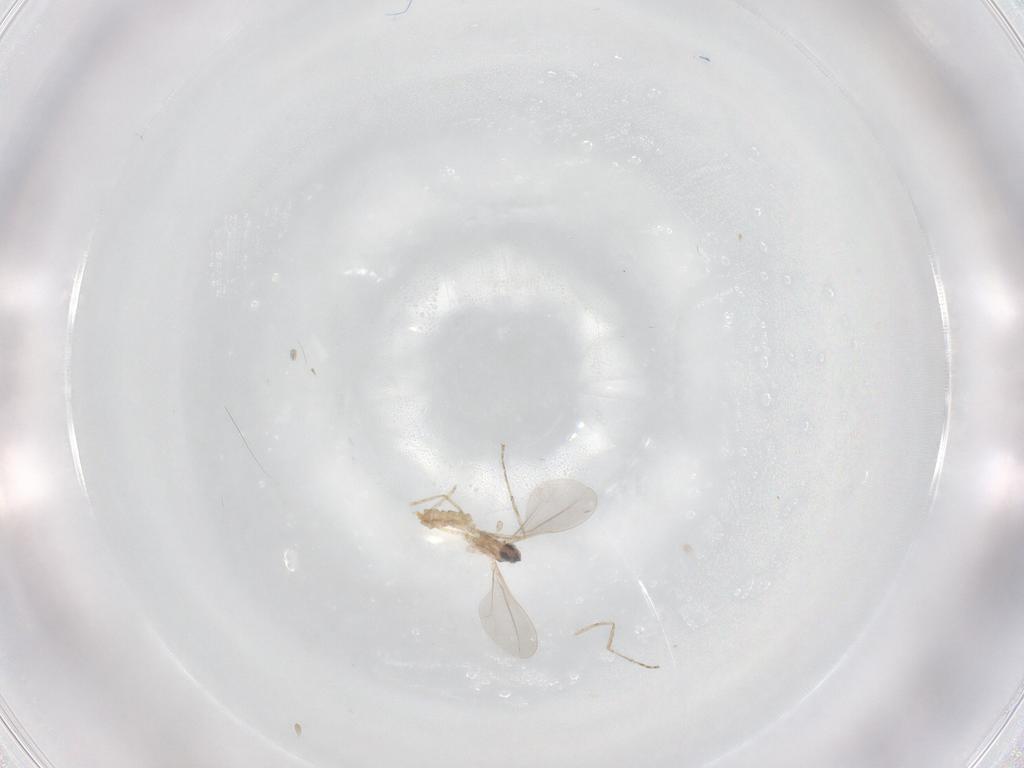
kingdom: Animalia
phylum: Arthropoda
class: Insecta
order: Diptera
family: Cecidomyiidae
